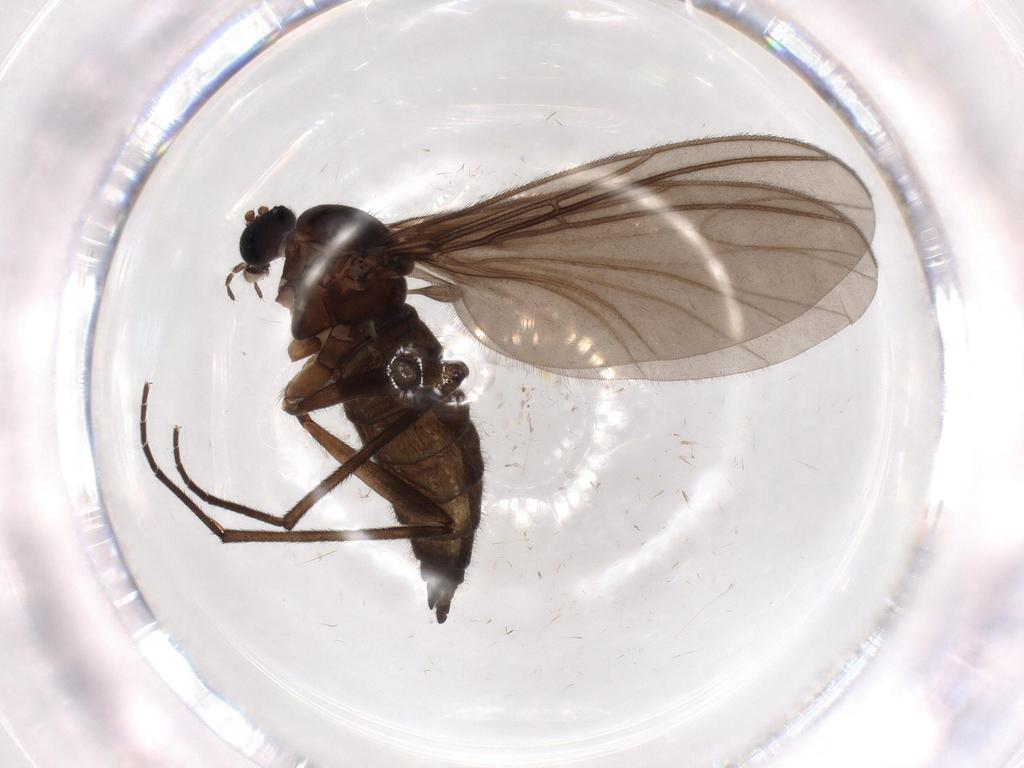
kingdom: Animalia
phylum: Arthropoda
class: Insecta
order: Diptera
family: Sciaridae
